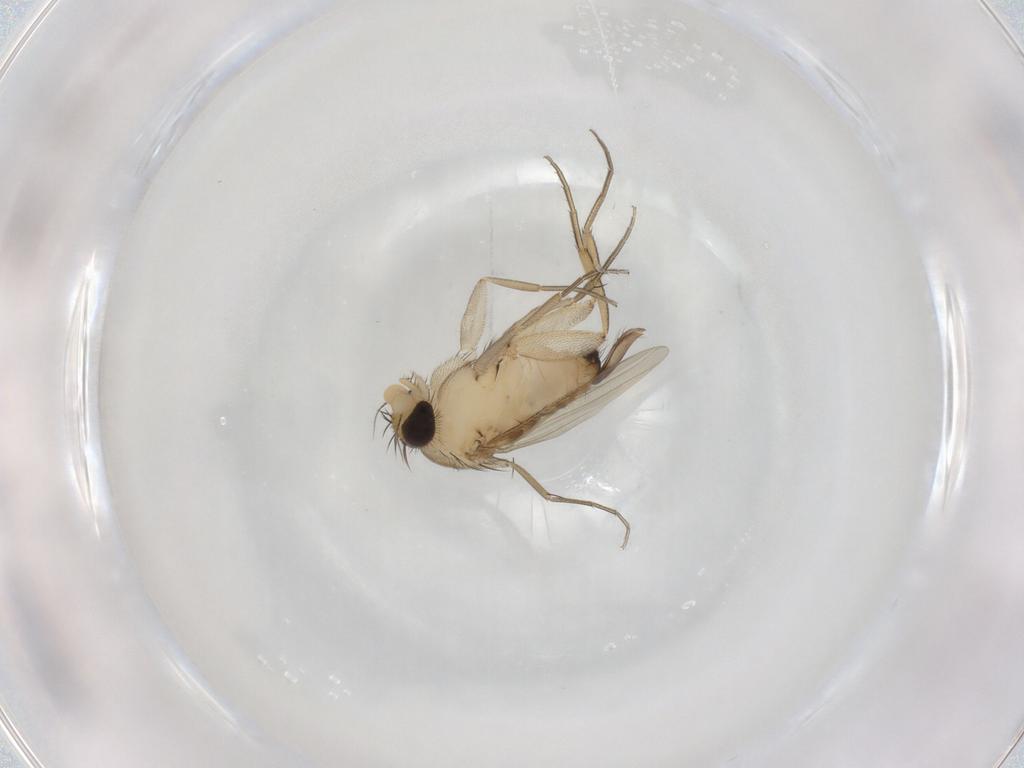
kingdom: Animalia
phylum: Arthropoda
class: Insecta
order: Diptera
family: Phoridae
